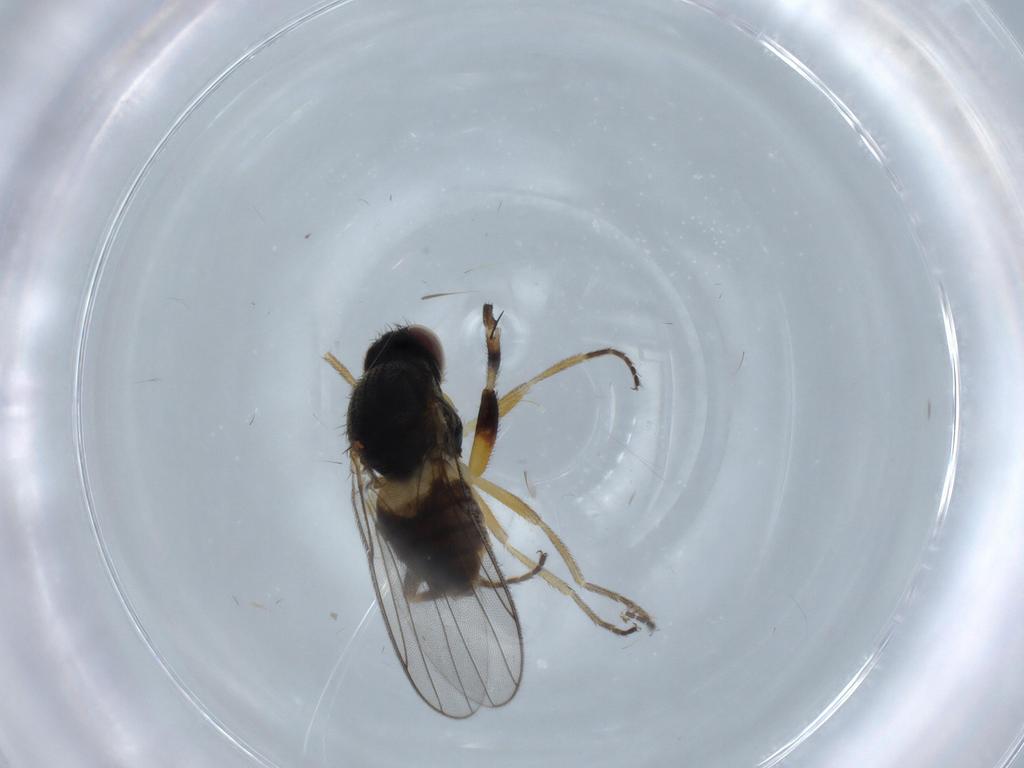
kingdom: Animalia
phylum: Arthropoda
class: Insecta
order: Diptera
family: Chloropidae
